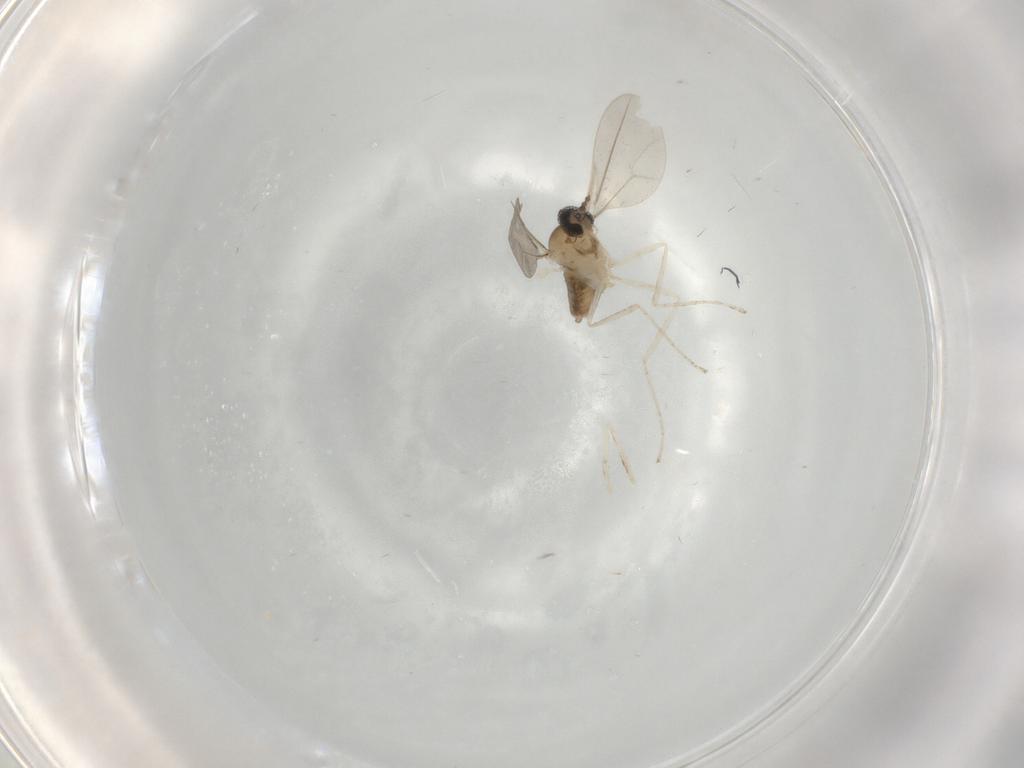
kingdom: Animalia
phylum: Arthropoda
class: Insecta
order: Diptera
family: Cecidomyiidae
